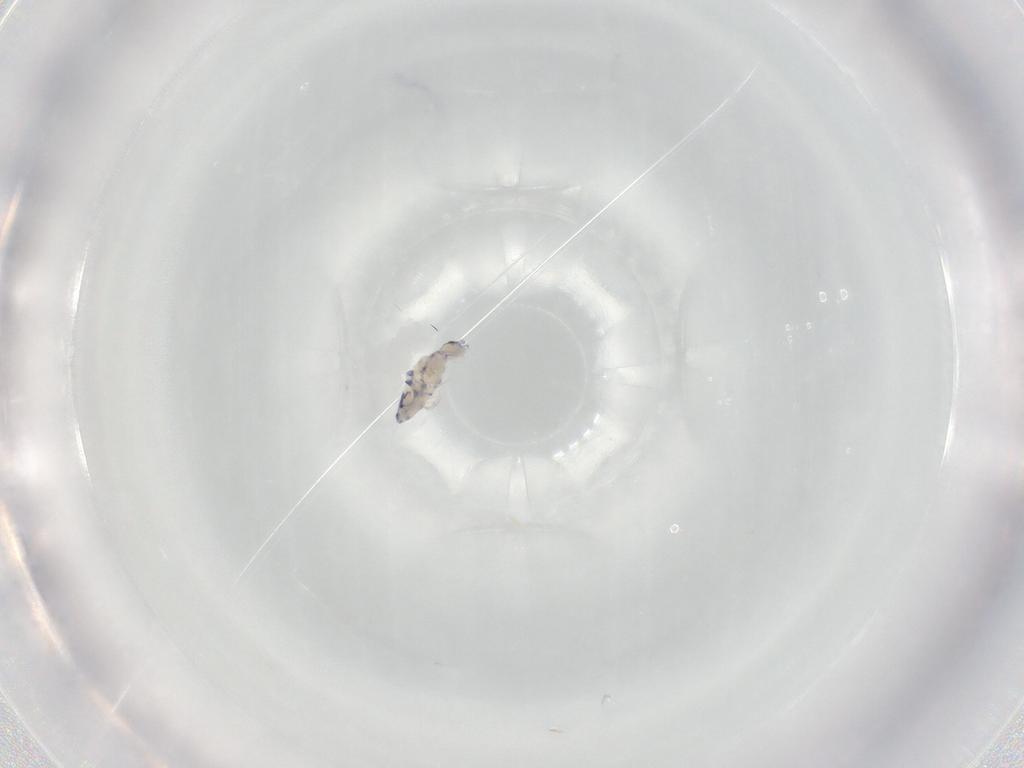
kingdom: Animalia
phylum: Arthropoda
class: Collembola
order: Entomobryomorpha
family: Entomobryidae
